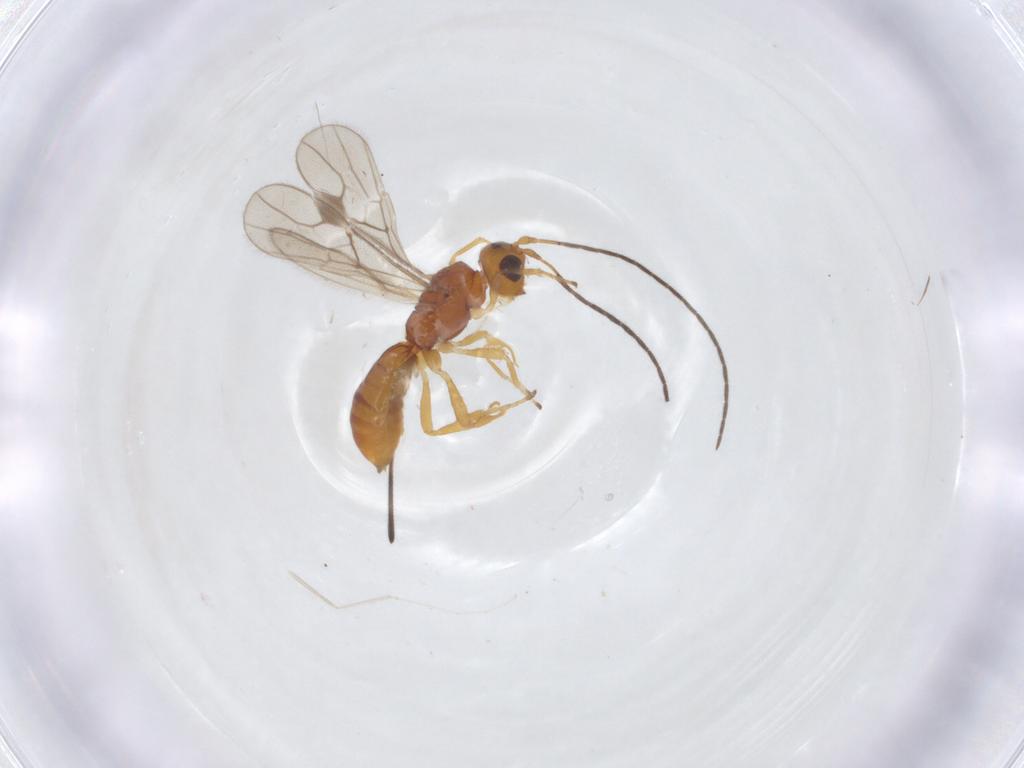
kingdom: Animalia
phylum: Arthropoda
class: Insecta
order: Hymenoptera
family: Braconidae
